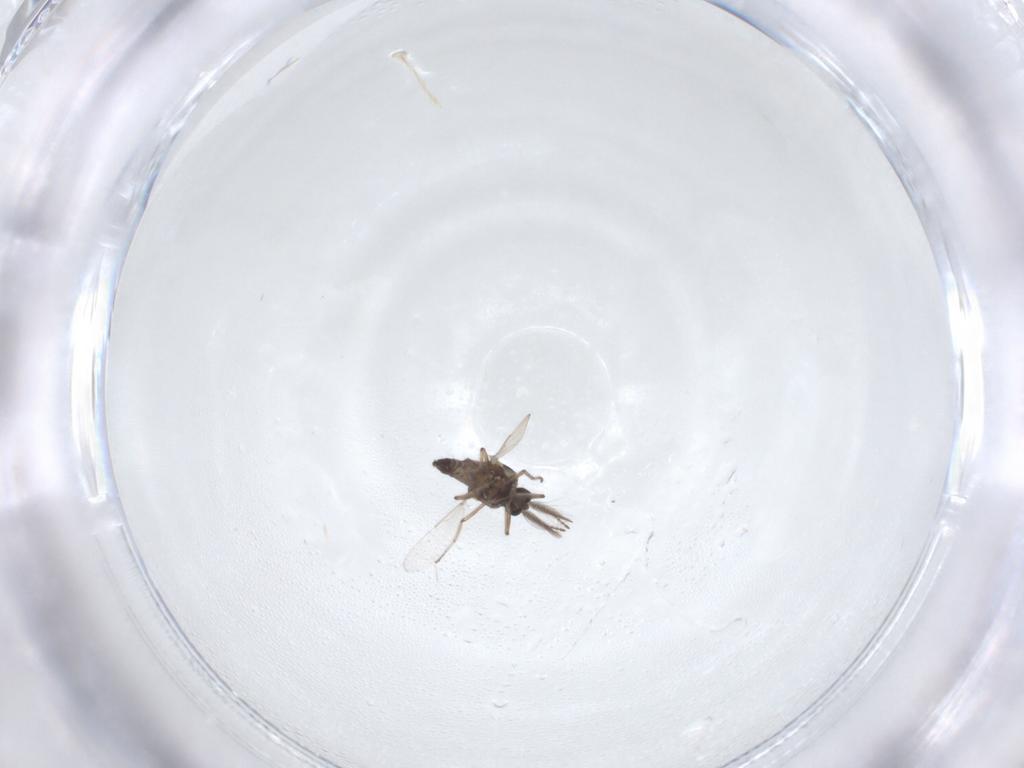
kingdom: Animalia
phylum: Arthropoda
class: Insecta
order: Diptera
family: Ceratopogonidae
